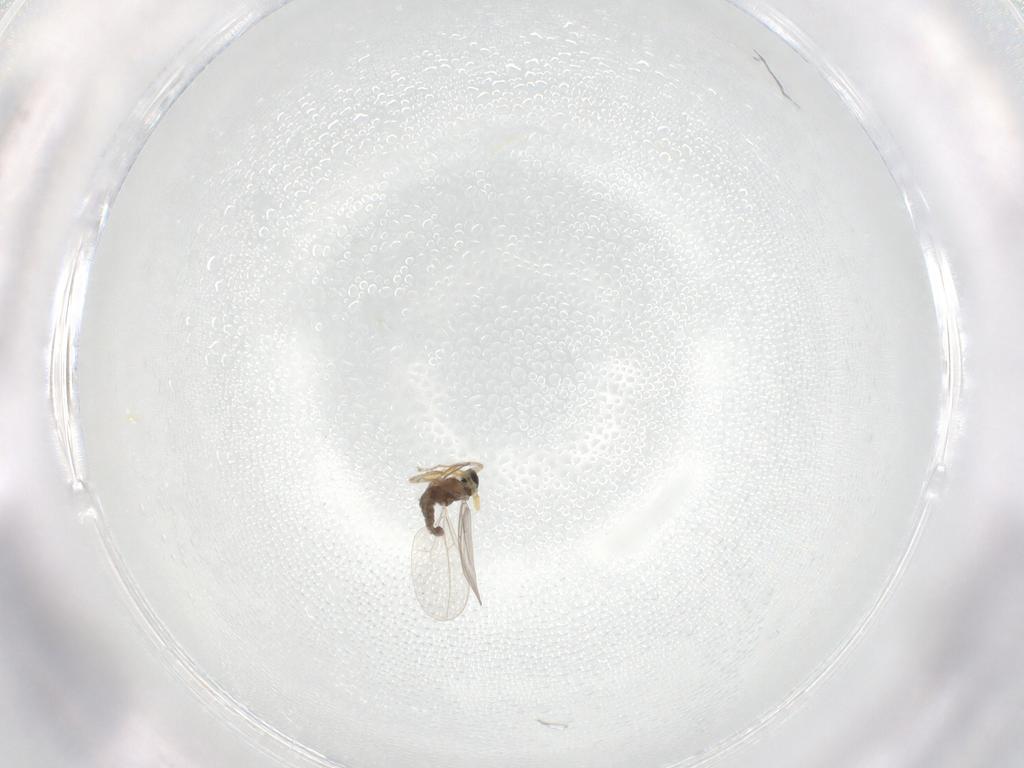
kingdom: Animalia
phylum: Arthropoda
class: Insecta
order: Diptera
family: Cecidomyiidae
